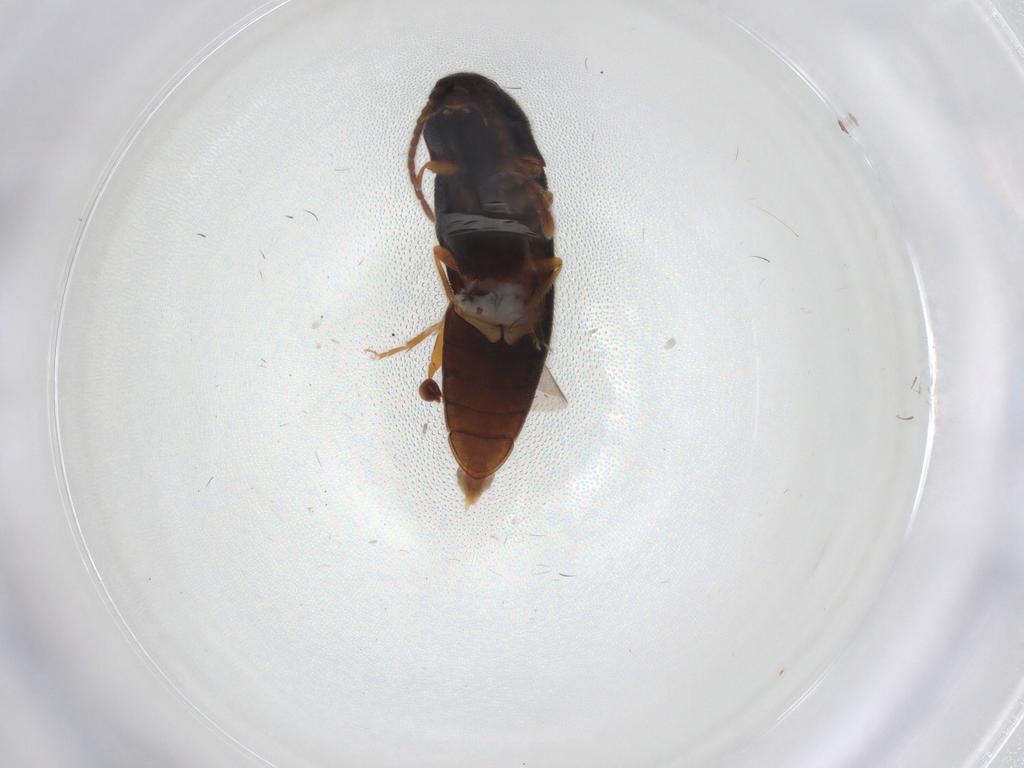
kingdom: Animalia
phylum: Arthropoda
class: Insecta
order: Coleoptera
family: Elateridae
